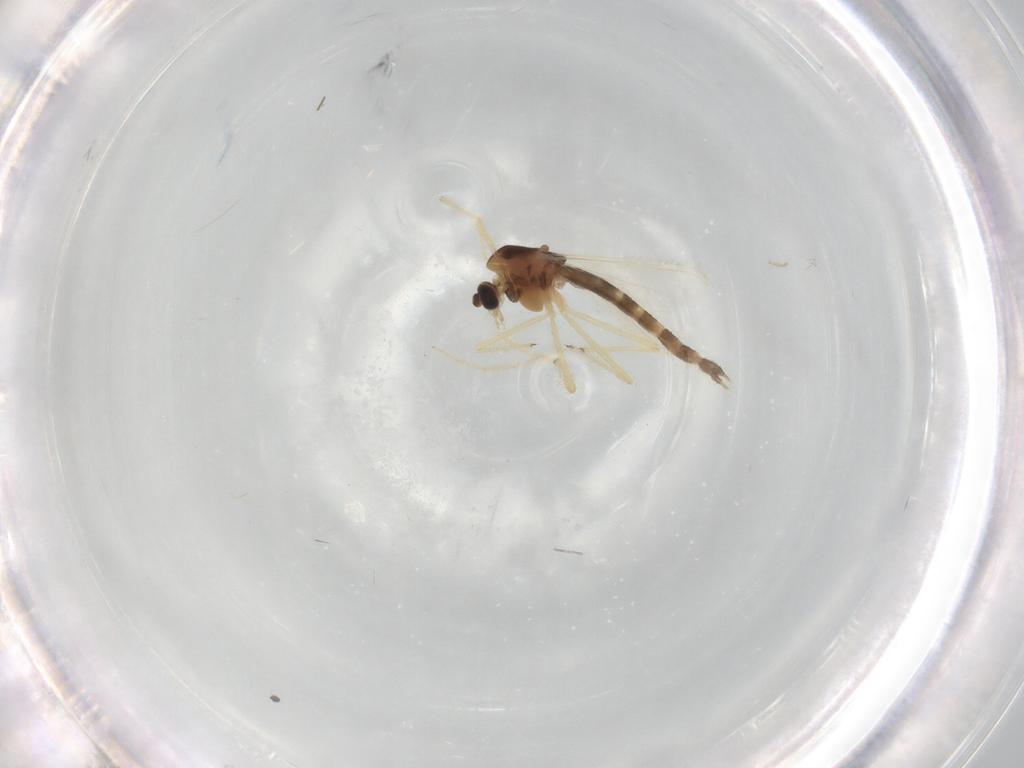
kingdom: Animalia
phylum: Arthropoda
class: Insecta
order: Diptera
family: Chironomidae
